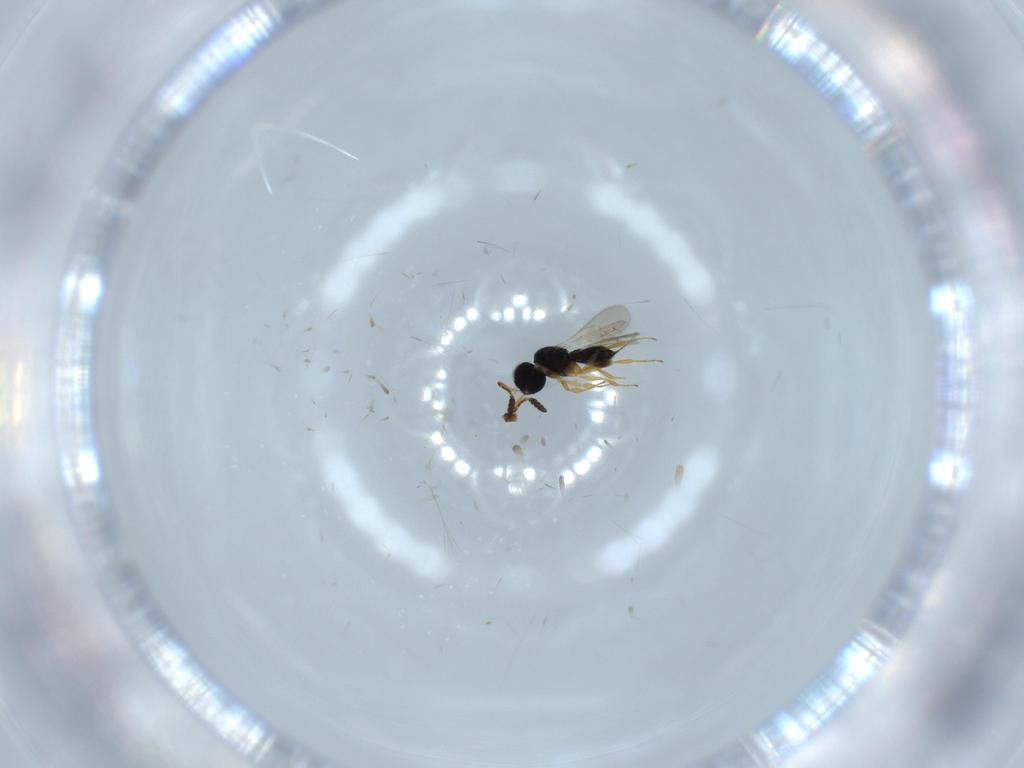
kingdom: Animalia
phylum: Arthropoda
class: Insecta
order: Hymenoptera
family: Scelionidae
